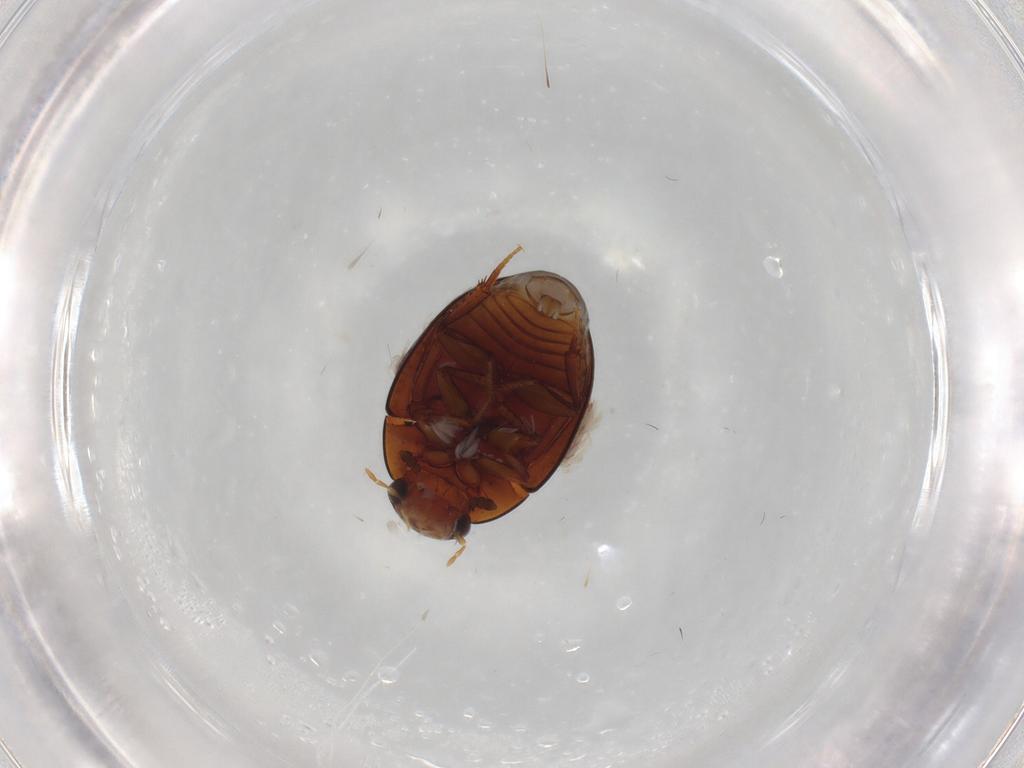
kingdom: Animalia
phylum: Arthropoda
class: Insecta
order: Coleoptera
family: Hydrophilidae
